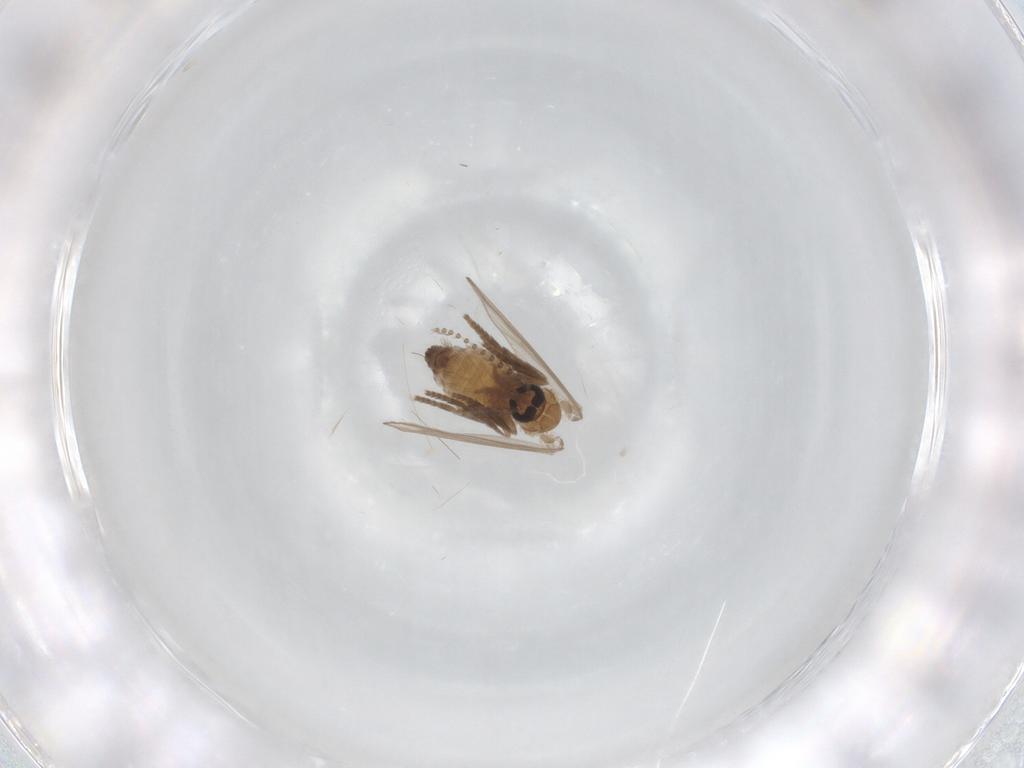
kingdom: Animalia
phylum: Arthropoda
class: Insecta
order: Diptera
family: Psychodidae
